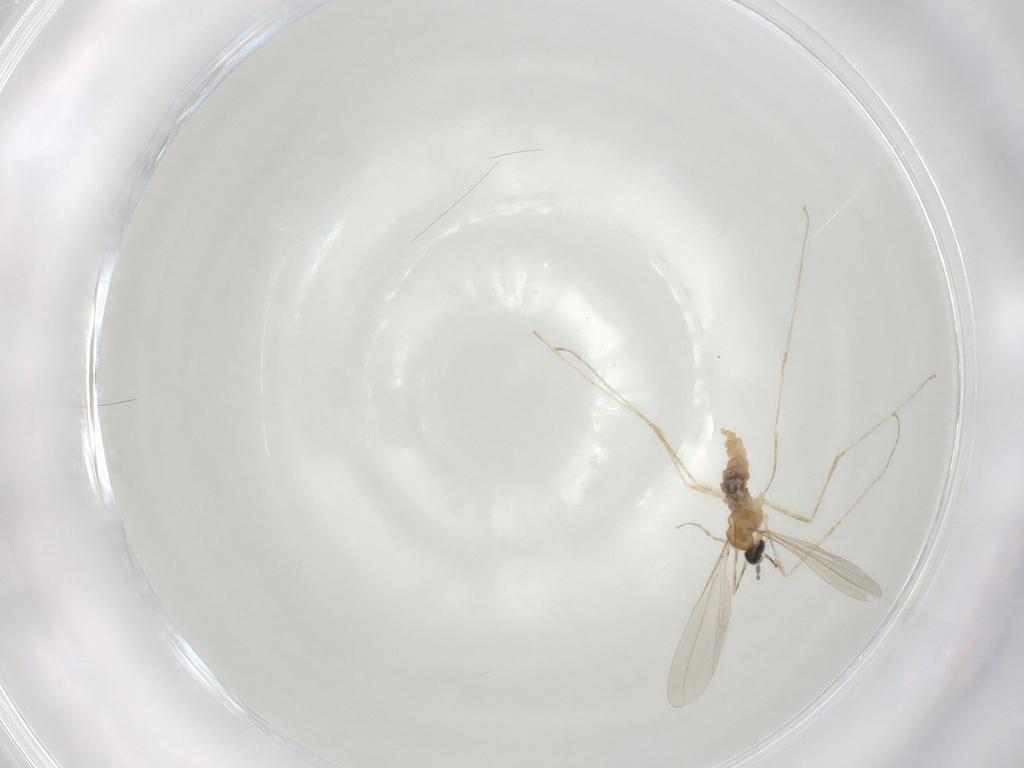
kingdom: Animalia
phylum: Arthropoda
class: Insecta
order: Diptera
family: Cecidomyiidae
